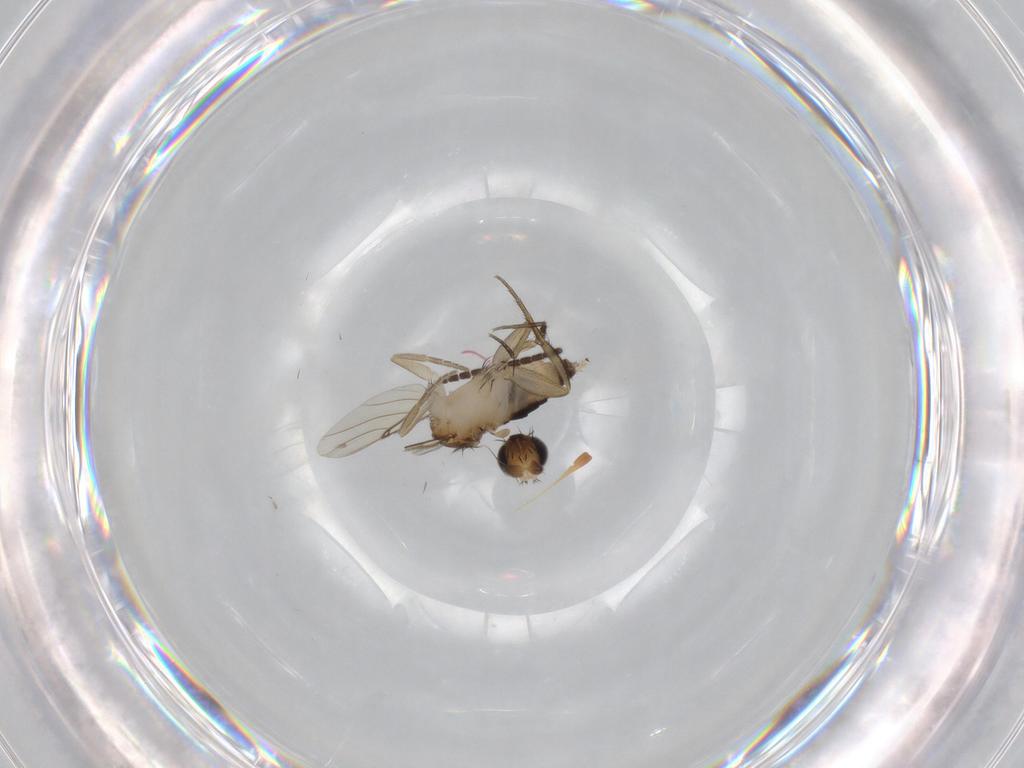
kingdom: Animalia
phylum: Arthropoda
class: Insecta
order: Diptera
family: Sciaridae
